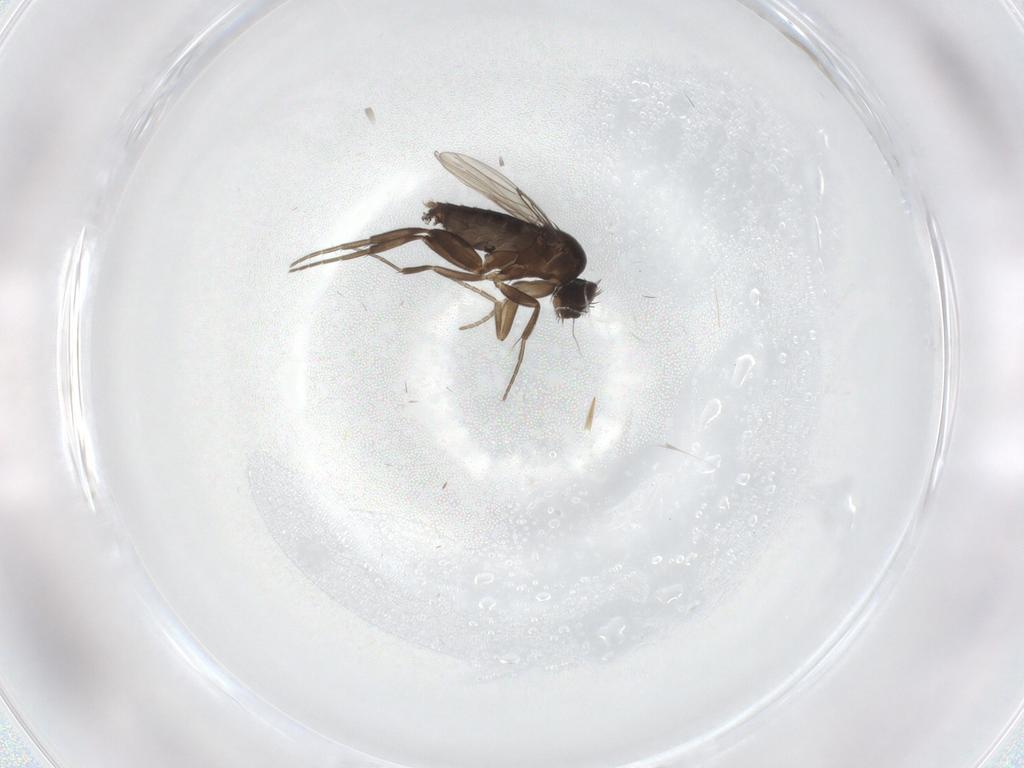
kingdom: Animalia
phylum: Arthropoda
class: Insecta
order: Diptera
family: Phoridae
